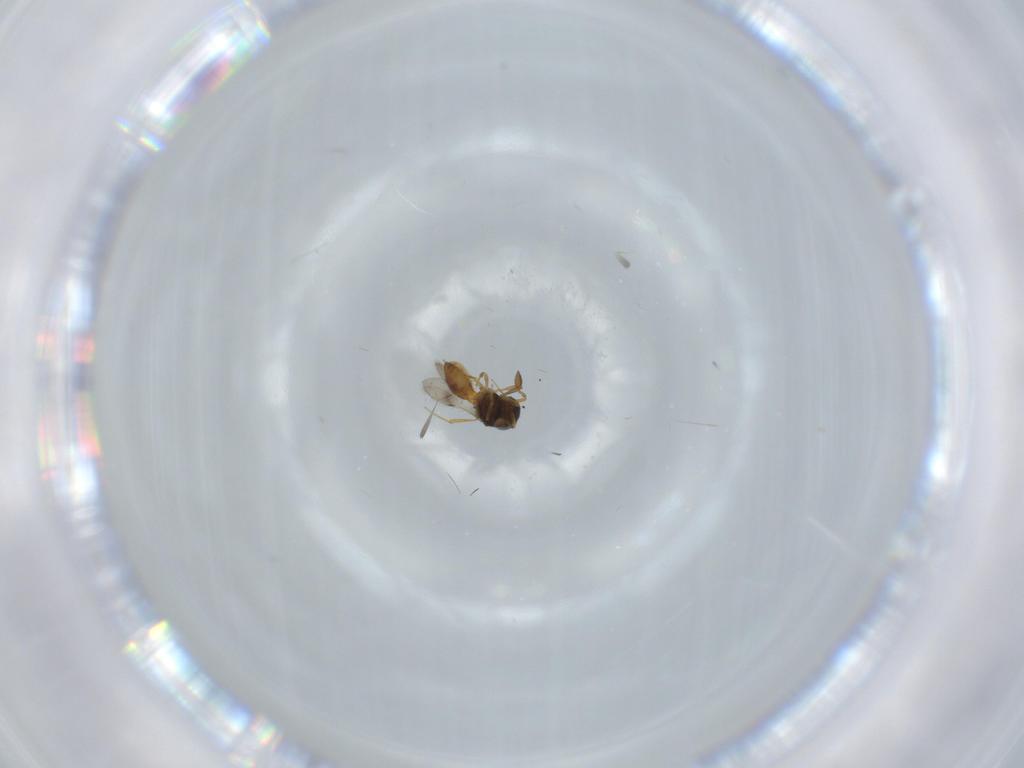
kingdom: Animalia
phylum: Arthropoda
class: Insecta
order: Hymenoptera
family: Scelionidae
